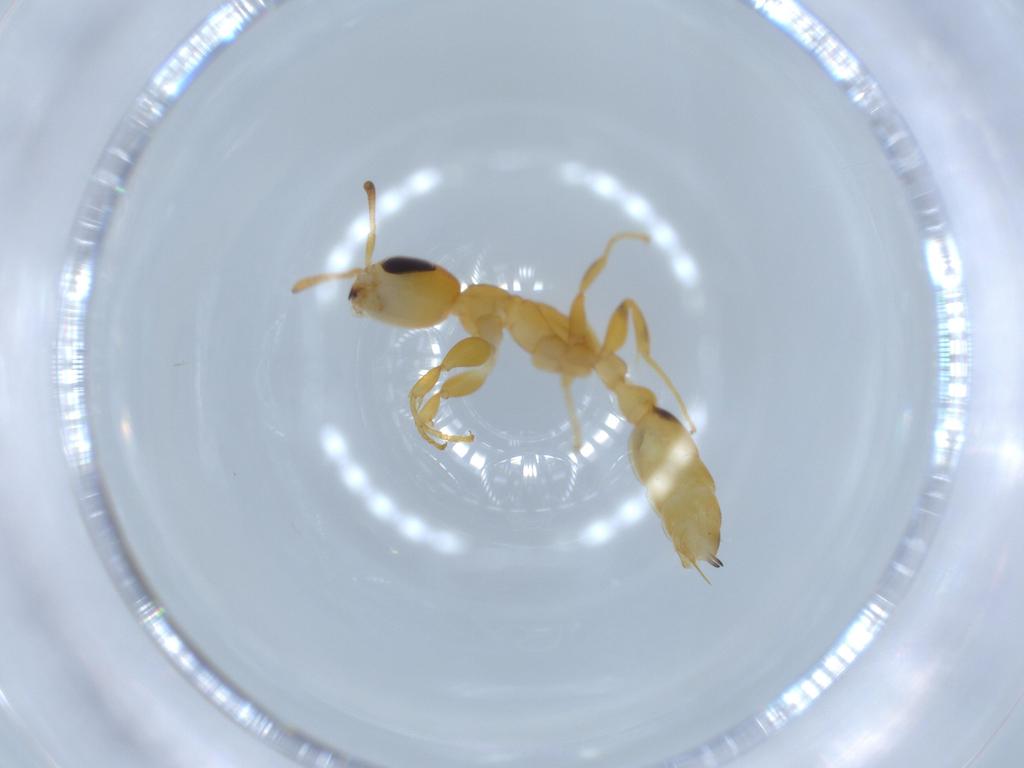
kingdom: Animalia
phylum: Arthropoda
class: Insecta
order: Hymenoptera
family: Formicidae
